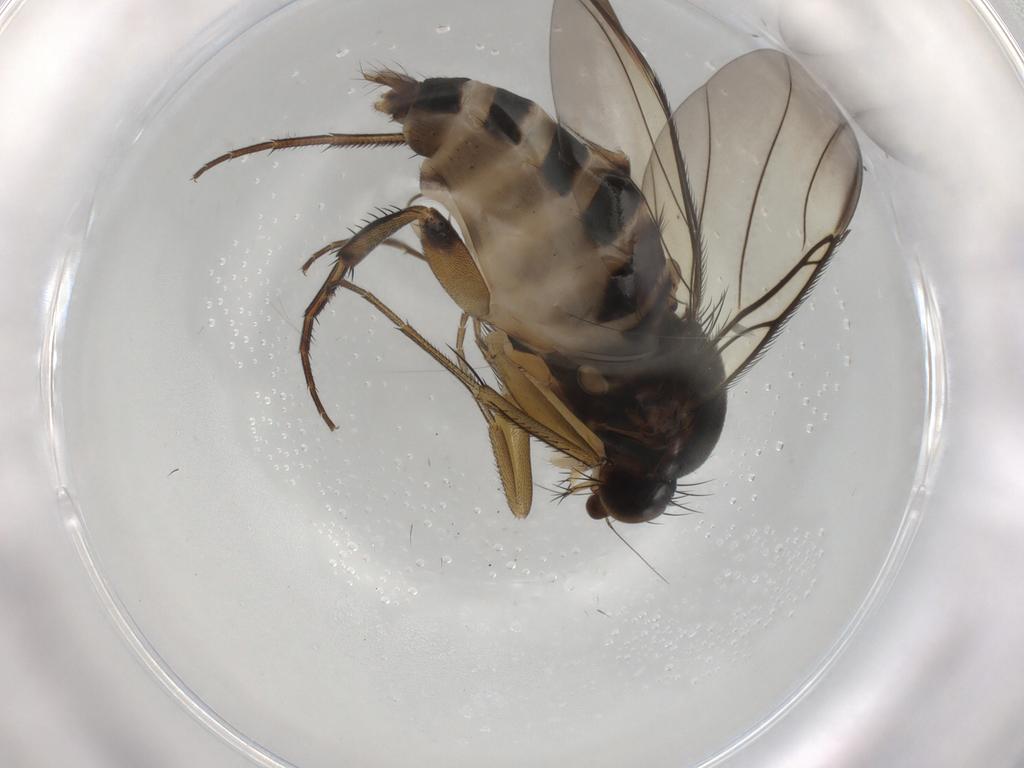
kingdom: Animalia
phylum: Arthropoda
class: Insecta
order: Diptera
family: Phoridae
